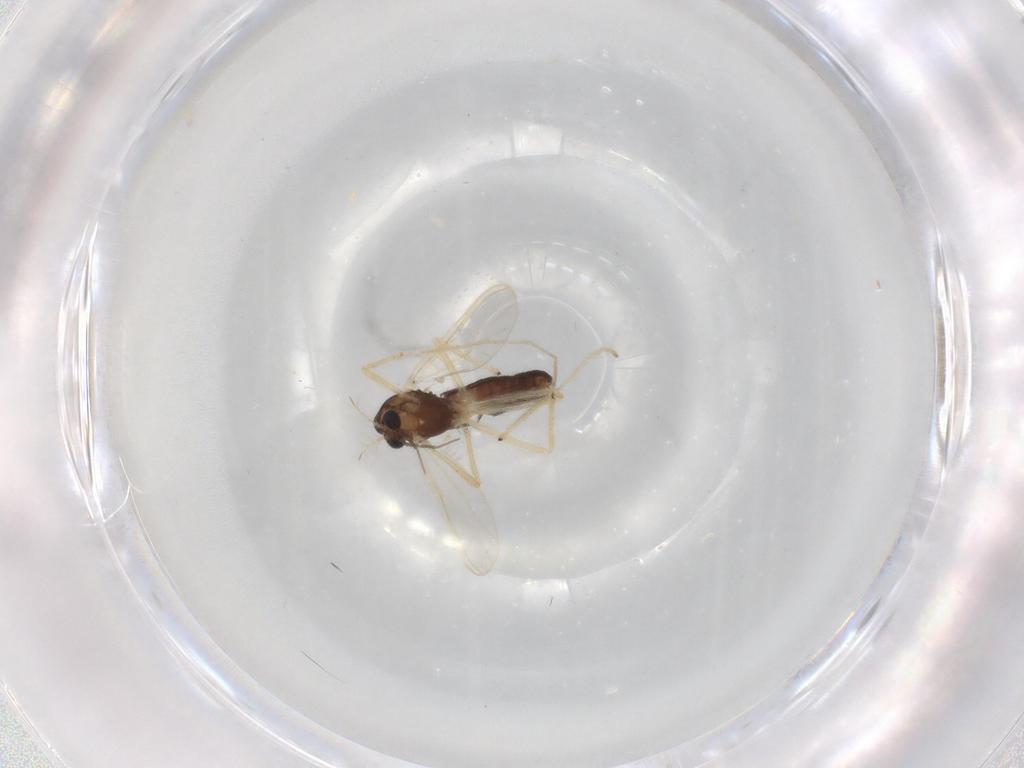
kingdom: Animalia
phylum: Arthropoda
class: Insecta
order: Diptera
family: Chironomidae
